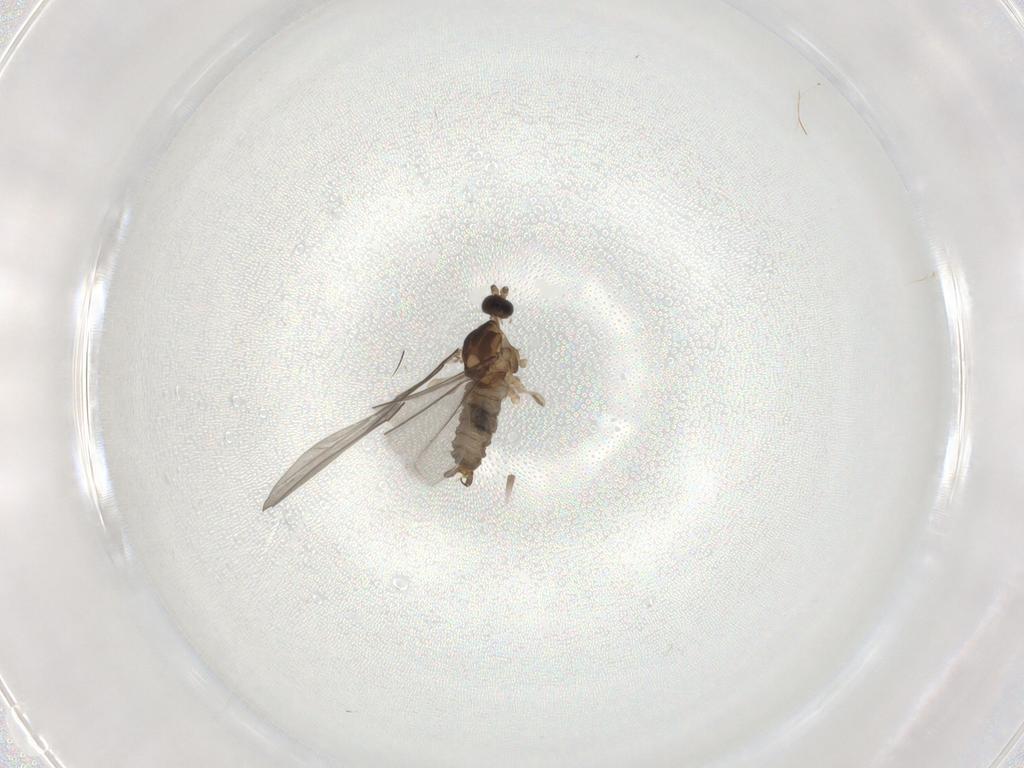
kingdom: Animalia
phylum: Arthropoda
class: Insecta
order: Diptera
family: Cecidomyiidae
